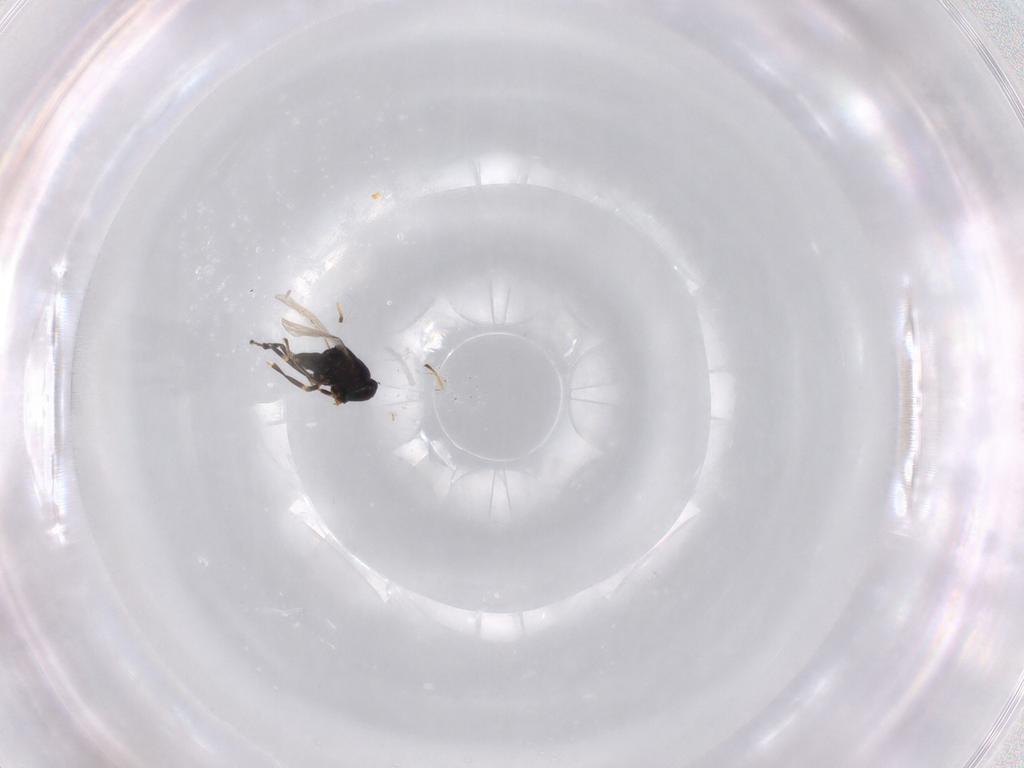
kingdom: Animalia
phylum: Arthropoda
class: Insecta
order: Hymenoptera
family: Encyrtidae
